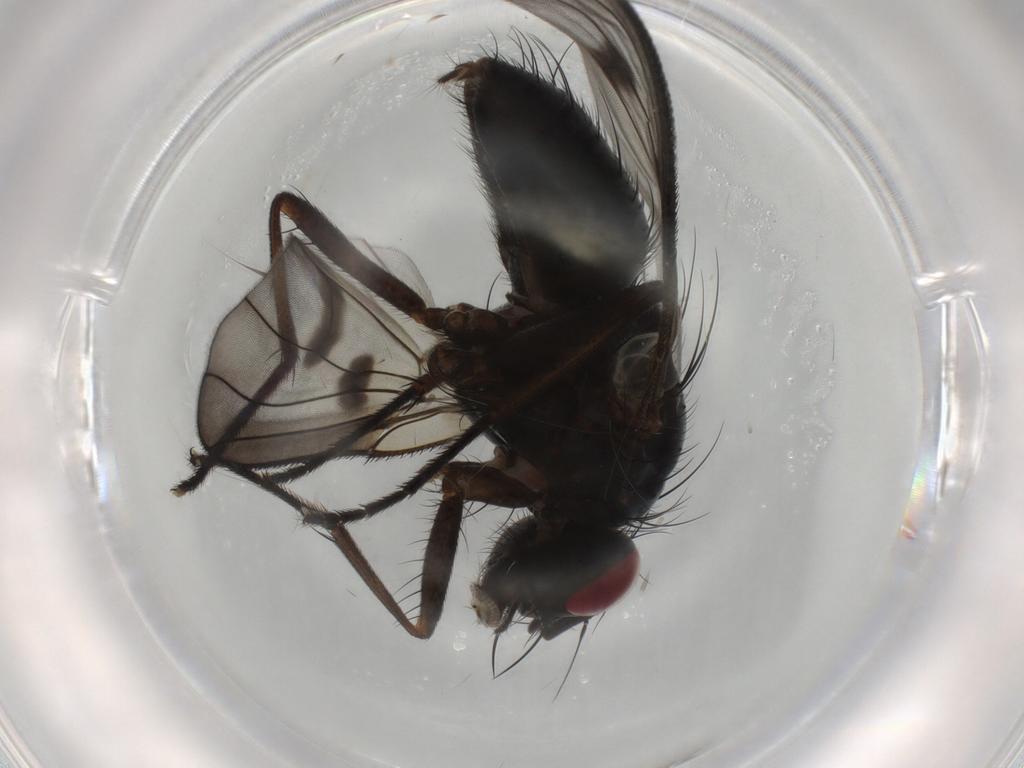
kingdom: Animalia
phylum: Arthropoda
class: Insecta
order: Diptera
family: Muscidae
